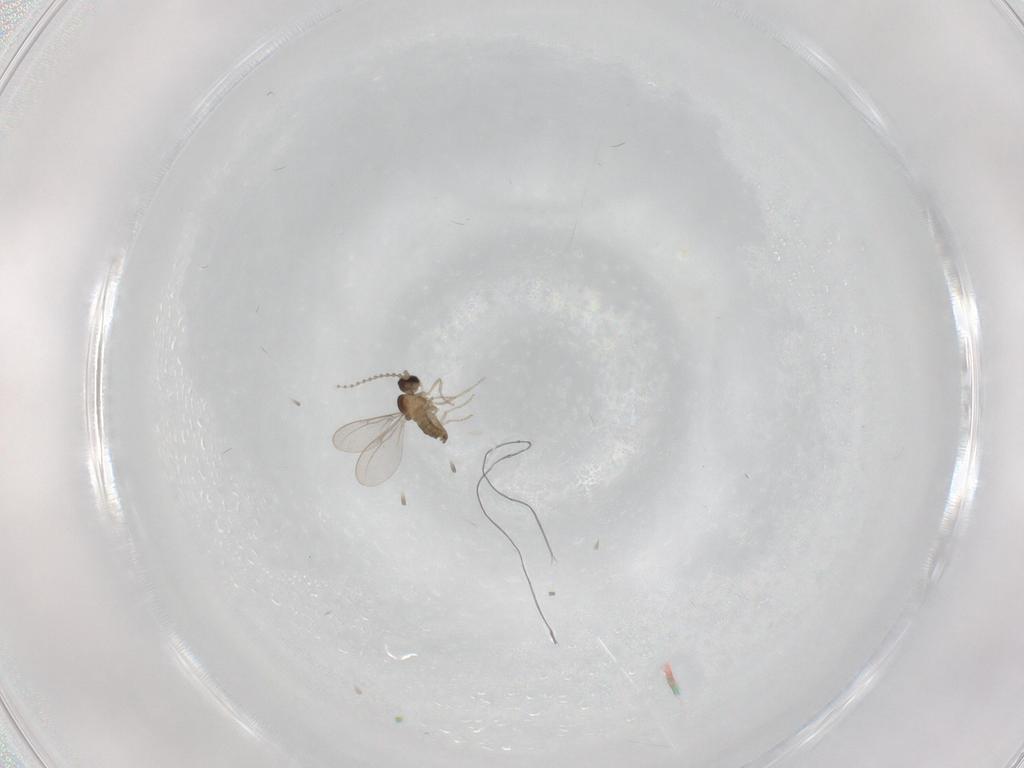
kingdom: Animalia
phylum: Arthropoda
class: Insecta
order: Diptera
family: Cecidomyiidae
